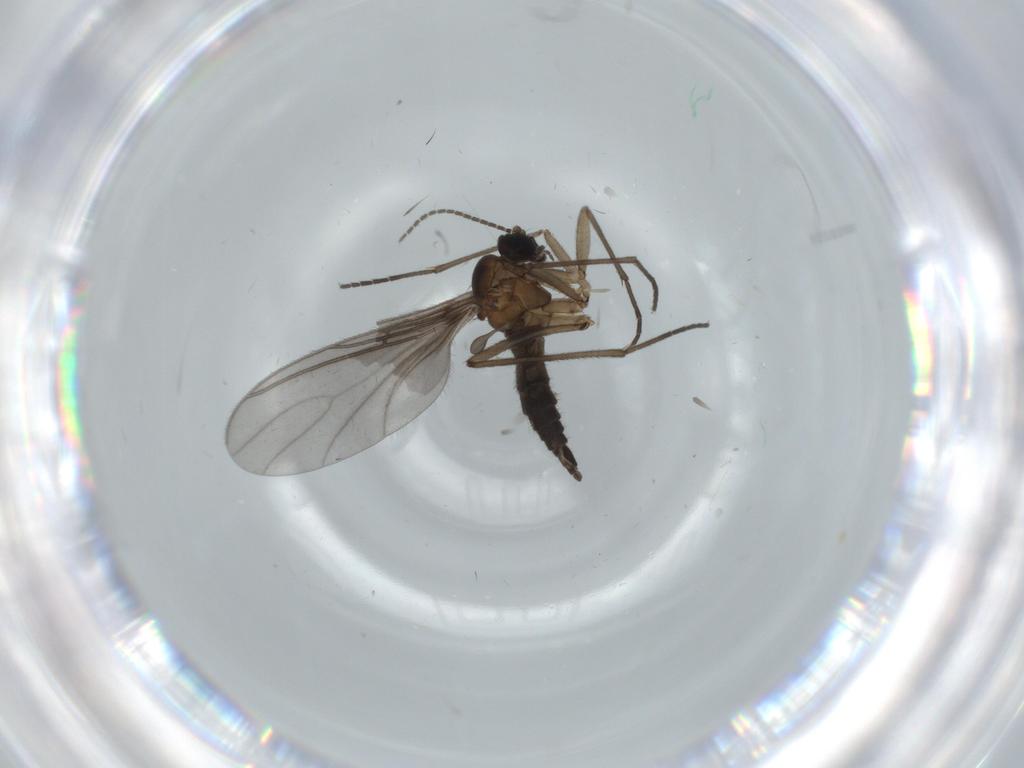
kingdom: Animalia
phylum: Arthropoda
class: Insecta
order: Diptera
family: Sciaridae
